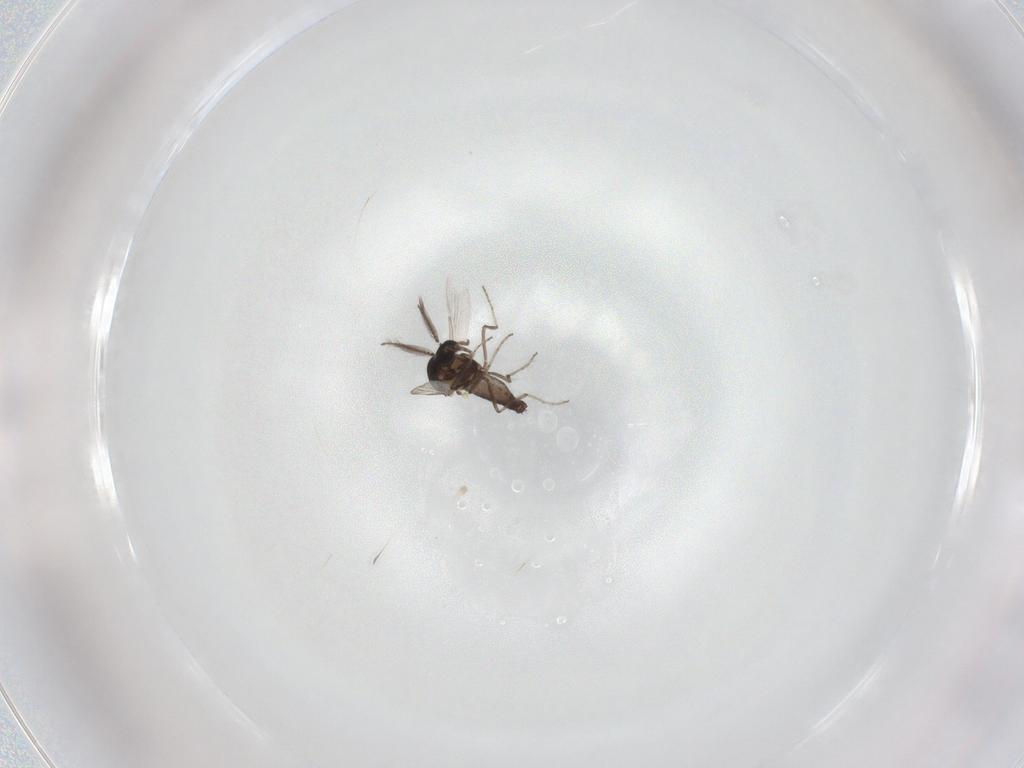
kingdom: Animalia
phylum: Arthropoda
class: Insecta
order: Diptera
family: Ceratopogonidae
